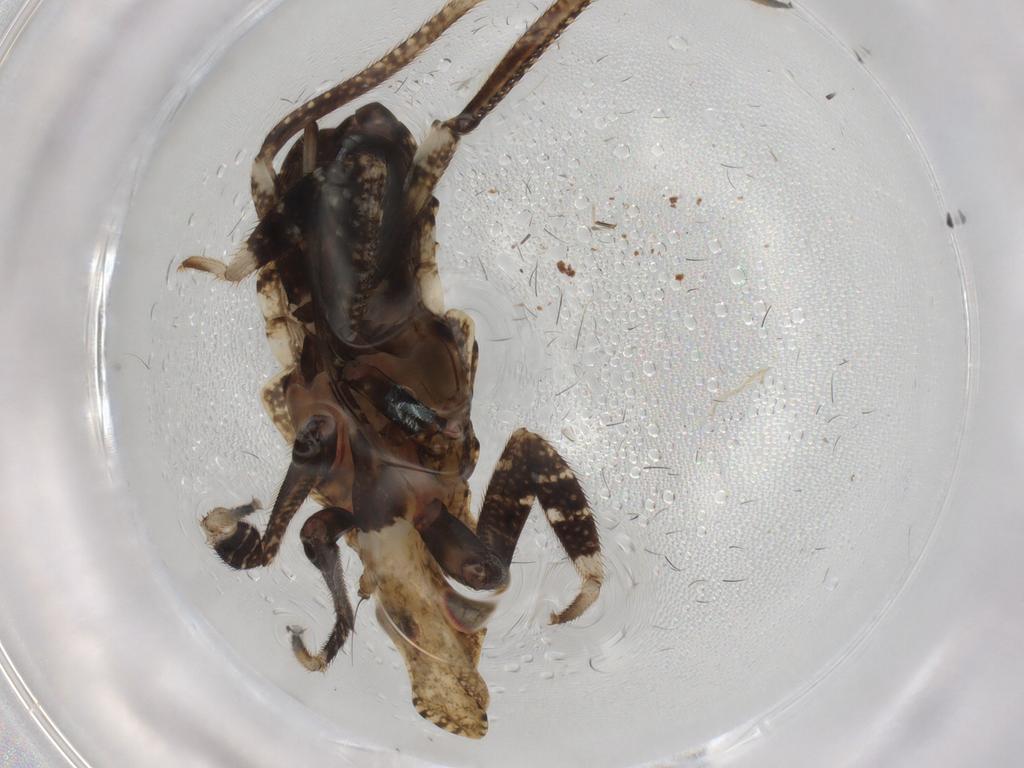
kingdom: Animalia
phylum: Arthropoda
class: Insecta
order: Hemiptera
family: Fulgoridae
